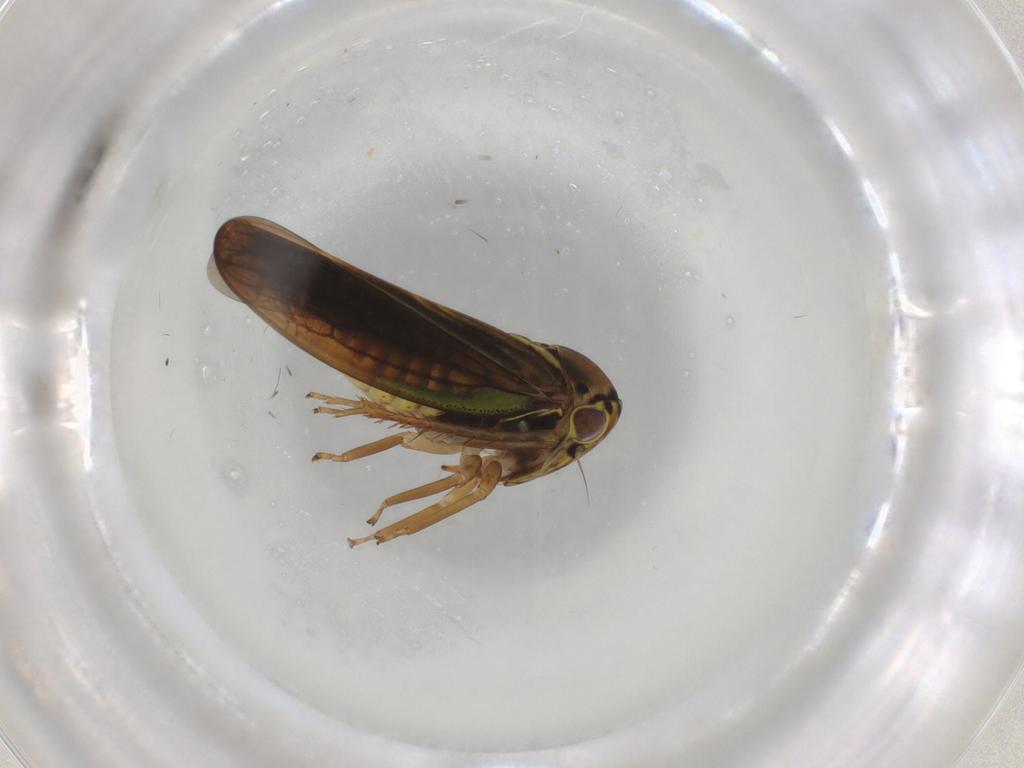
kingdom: Animalia
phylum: Arthropoda
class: Insecta
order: Hemiptera
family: Cicadellidae
